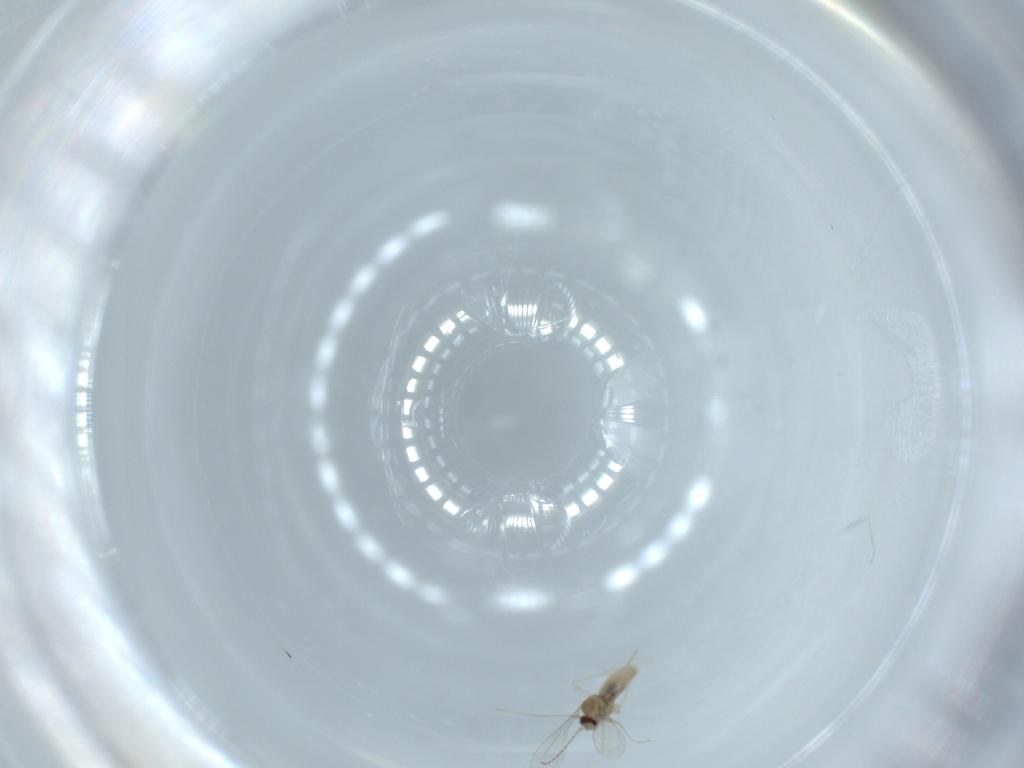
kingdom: Animalia
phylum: Arthropoda
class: Insecta
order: Diptera
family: Cecidomyiidae
